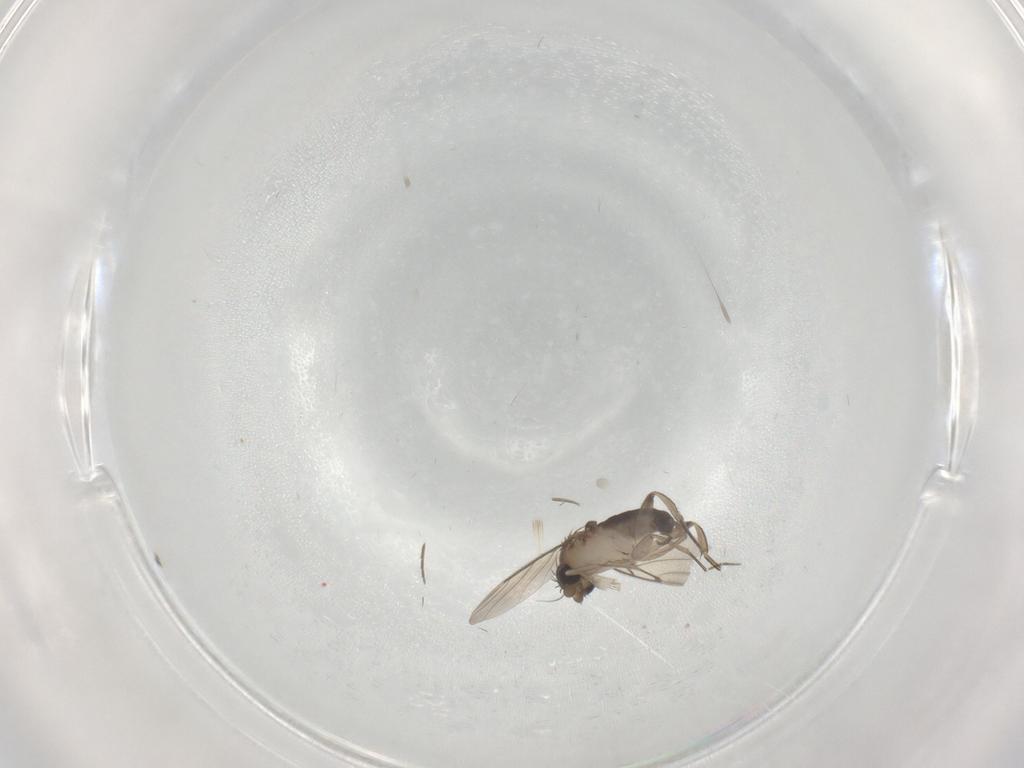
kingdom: Animalia
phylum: Arthropoda
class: Insecta
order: Diptera
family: Phoridae
